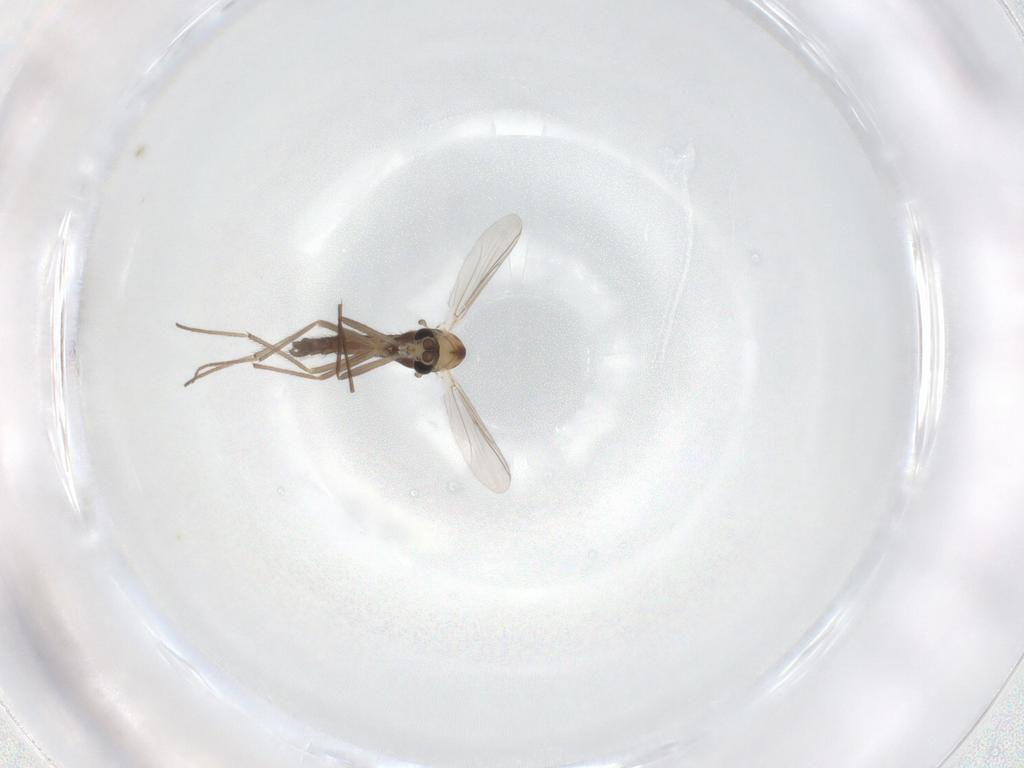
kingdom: Animalia
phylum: Arthropoda
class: Insecta
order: Diptera
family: Chironomidae
